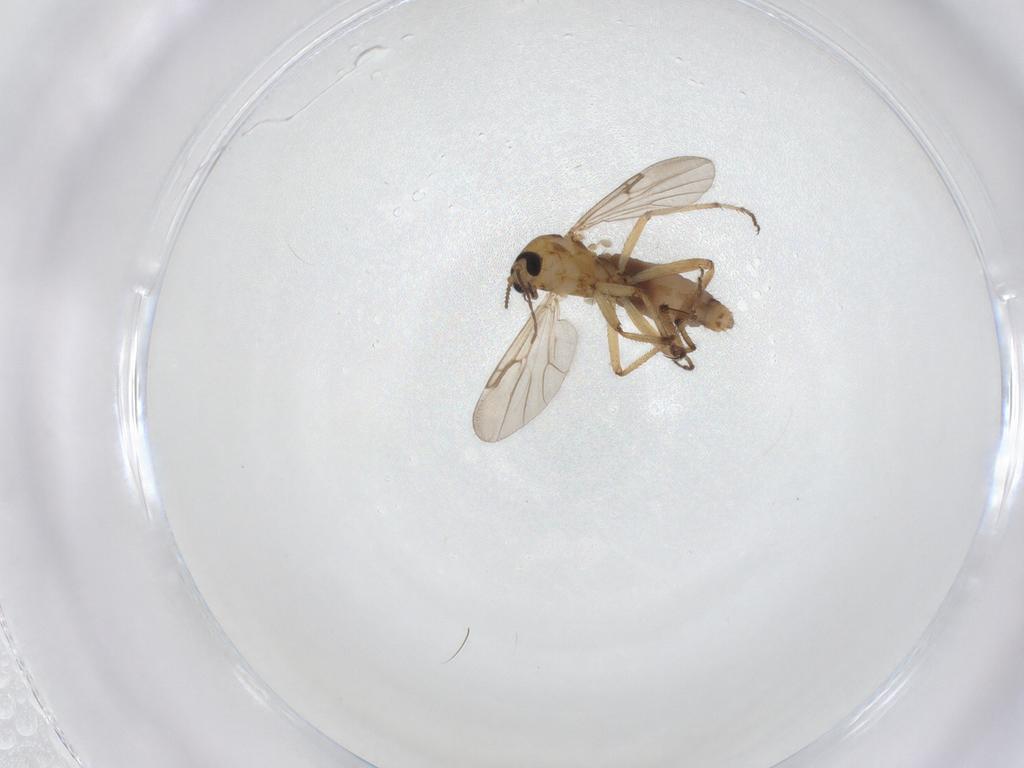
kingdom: Animalia
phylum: Arthropoda
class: Insecta
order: Diptera
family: Ceratopogonidae
